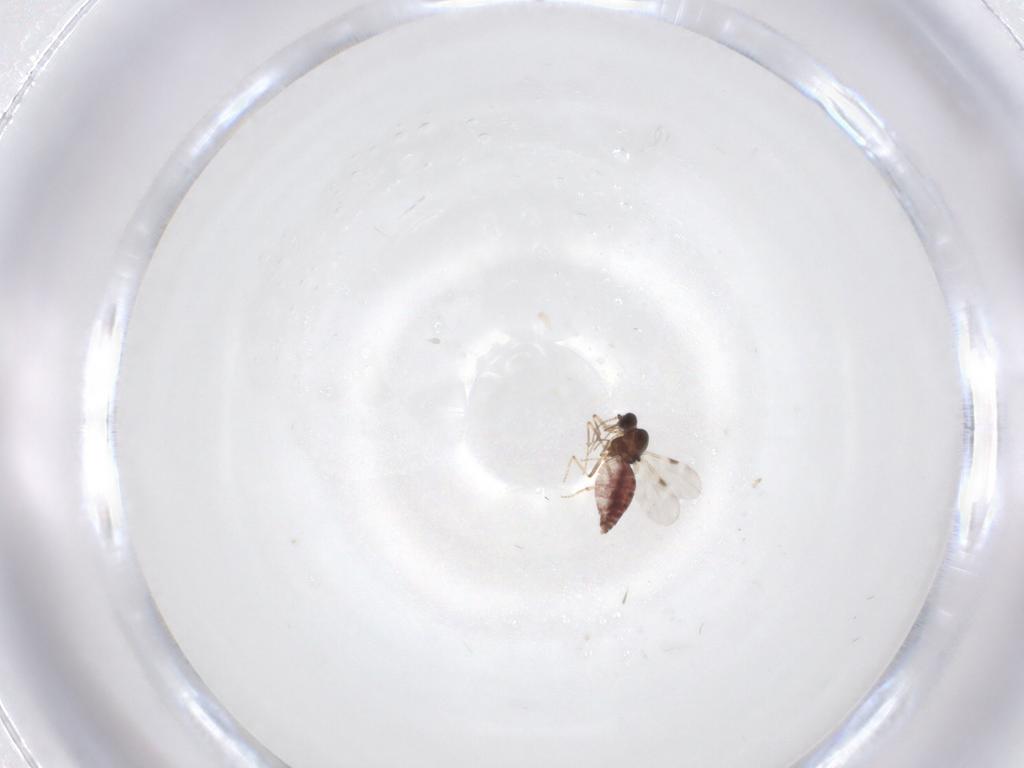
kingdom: Animalia
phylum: Arthropoda
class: Insecta
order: Diptera
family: Phoridae
